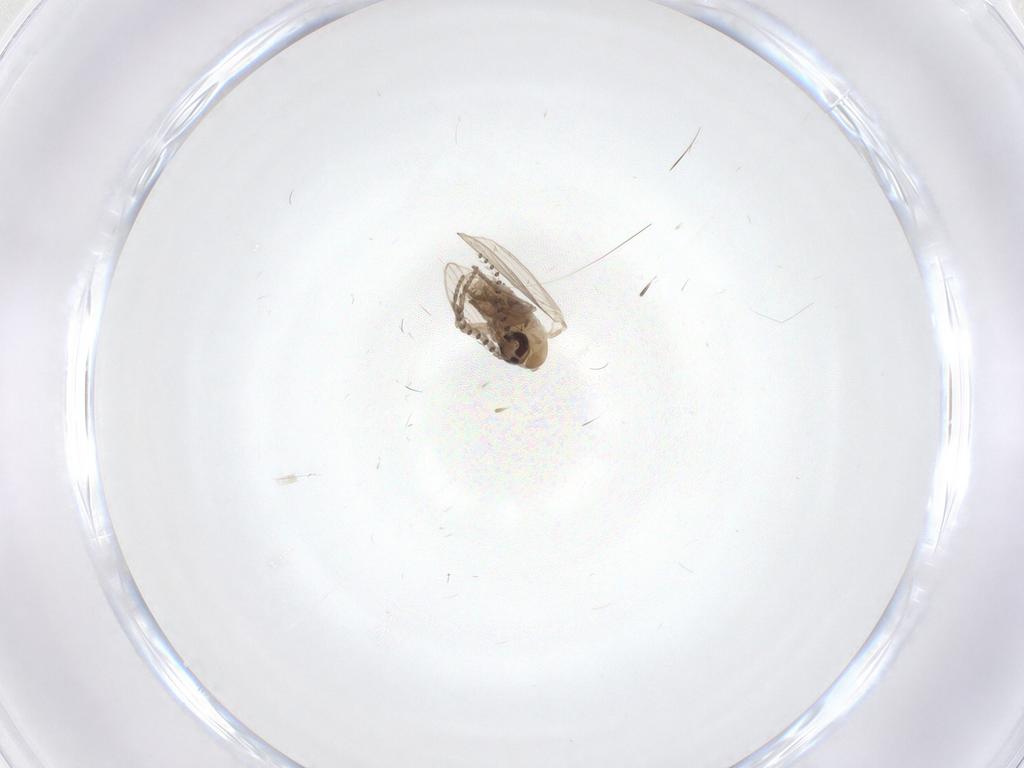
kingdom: Animalia
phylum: Arthropoda
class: Insecta
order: Diptera
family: Psychodidae
